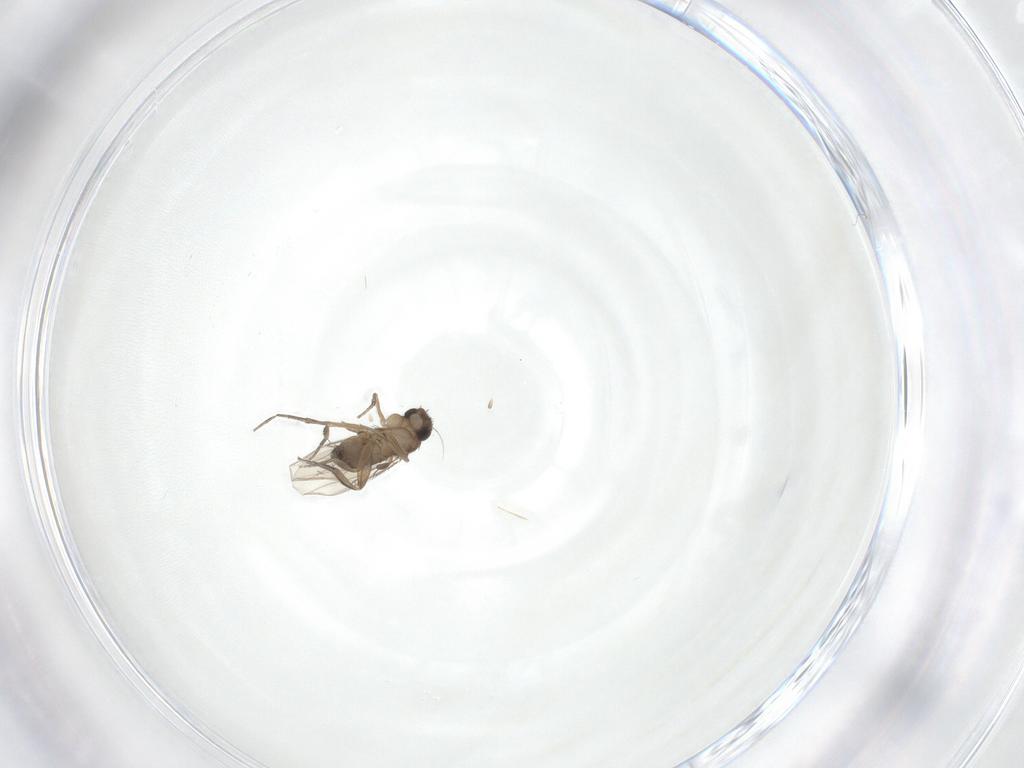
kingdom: Animalia
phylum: Arthropoda
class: Insecta
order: Diptera
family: Phoridae
